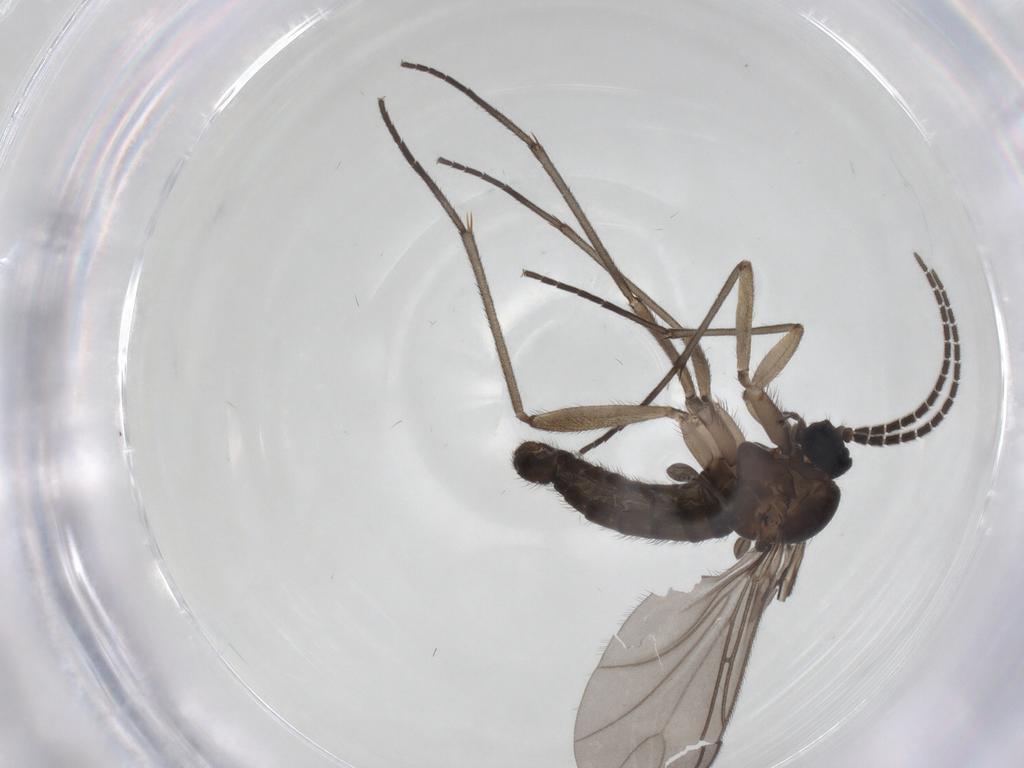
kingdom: Animalia
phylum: Arthropoda
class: Insecta
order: Diptera
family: Sciaridae
